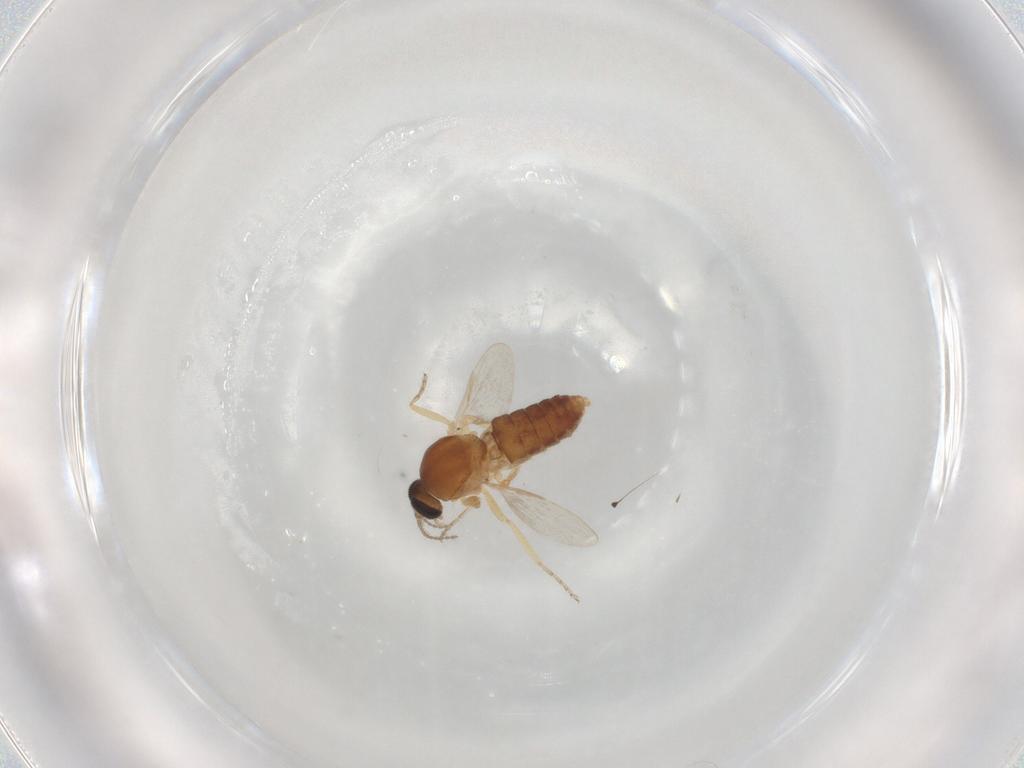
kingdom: Animalia
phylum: Arthropoda
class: Insecta
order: Diptera
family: Ceratopogonidae
